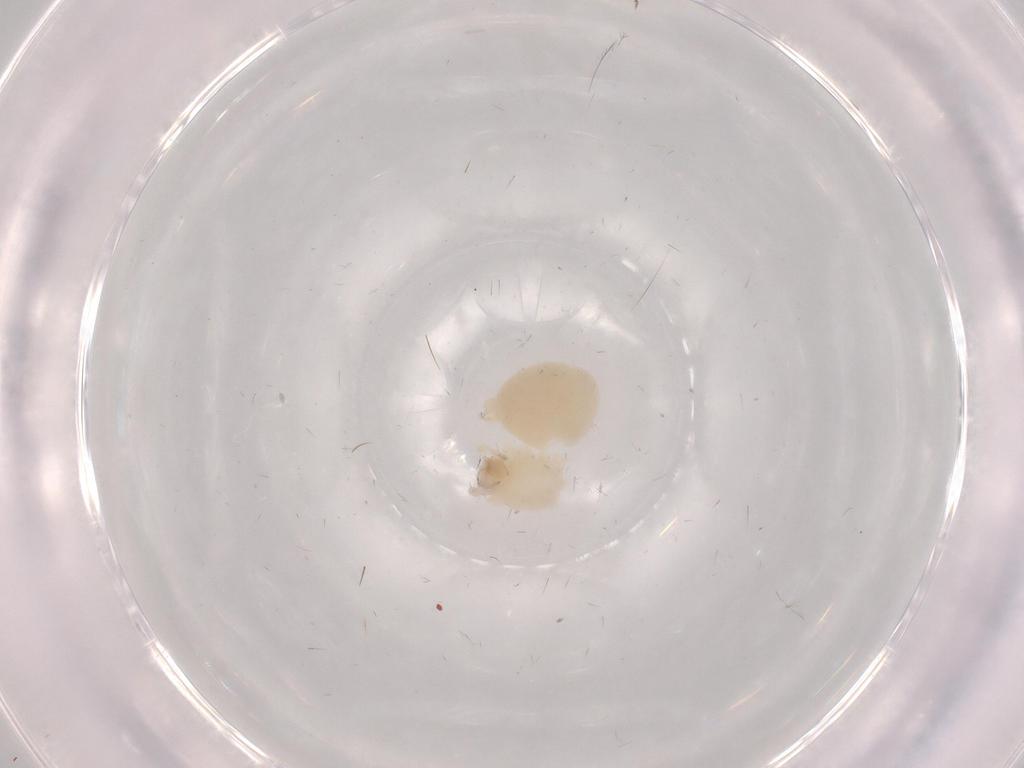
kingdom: Animalia
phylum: Arthropoda
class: Arachnida
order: Araneae
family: Anyphaenidae
